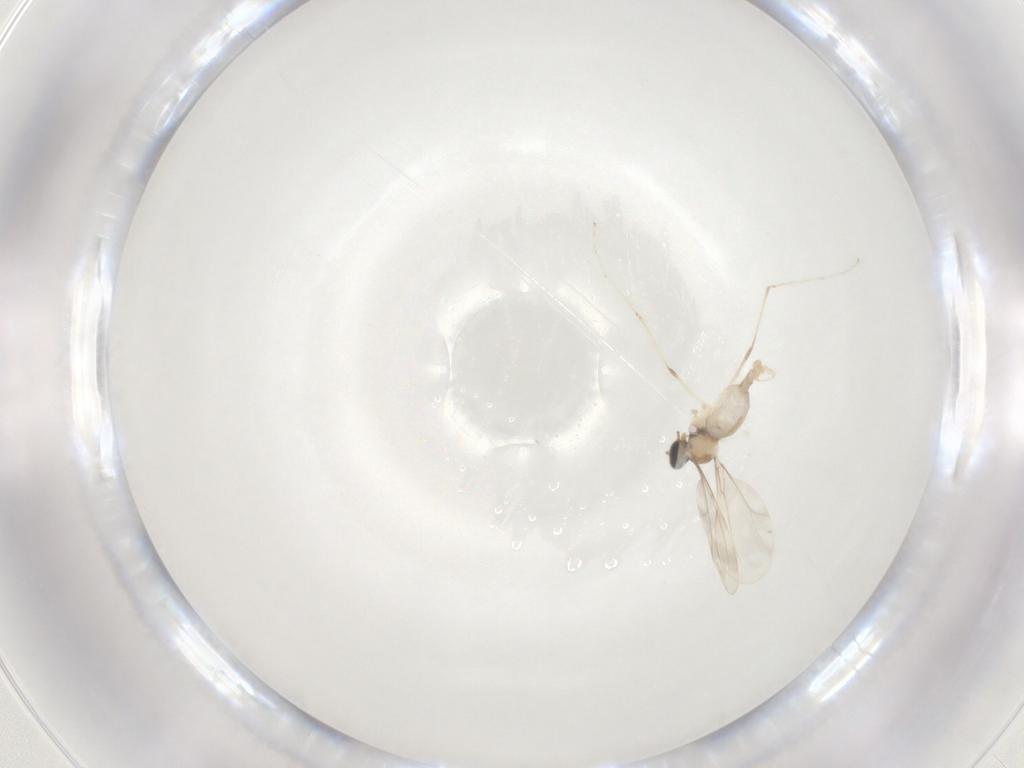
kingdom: Animalia
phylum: Arthropoda
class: Insecta
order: Diptera
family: Cecidomyiidae
